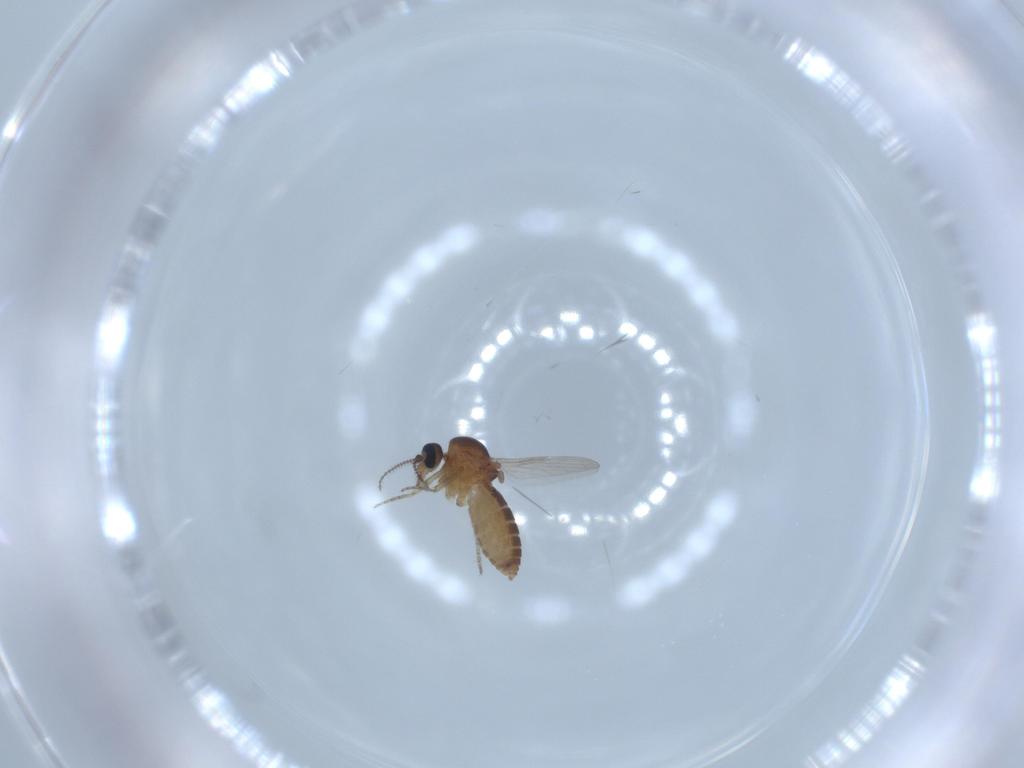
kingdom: Animalia
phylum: Arthropoda
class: Insecta
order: Diptera
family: Ceratopogonidae
